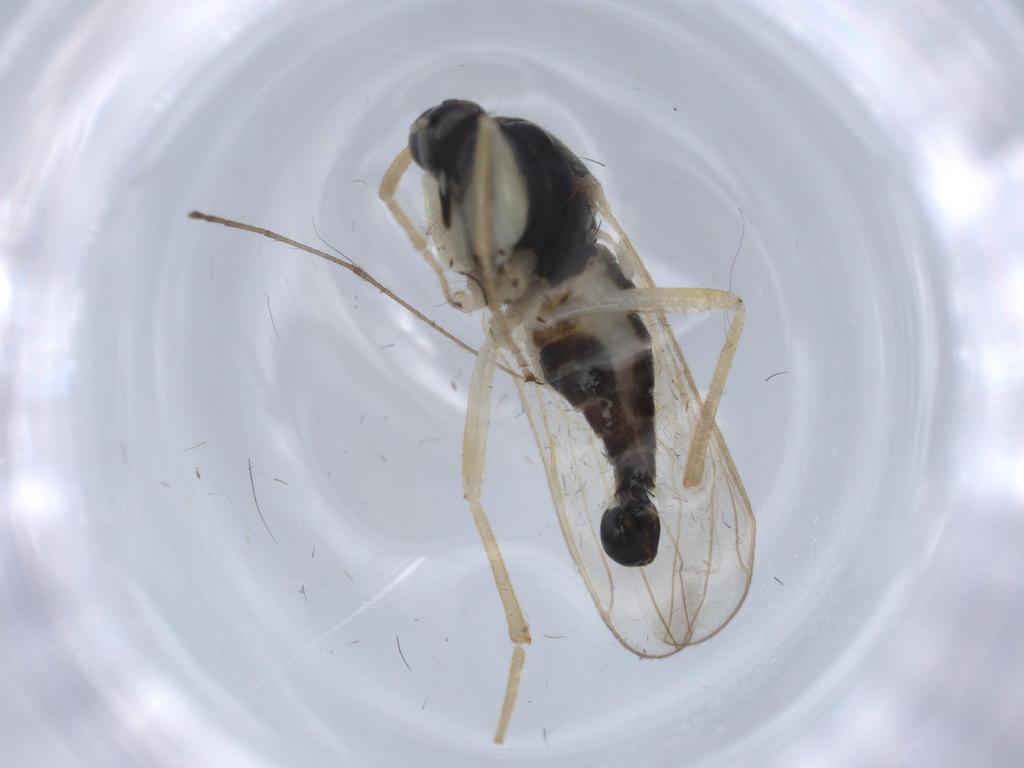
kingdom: Animalia
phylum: Arthropoda
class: Insecta
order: Diptera
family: Hybotidae
